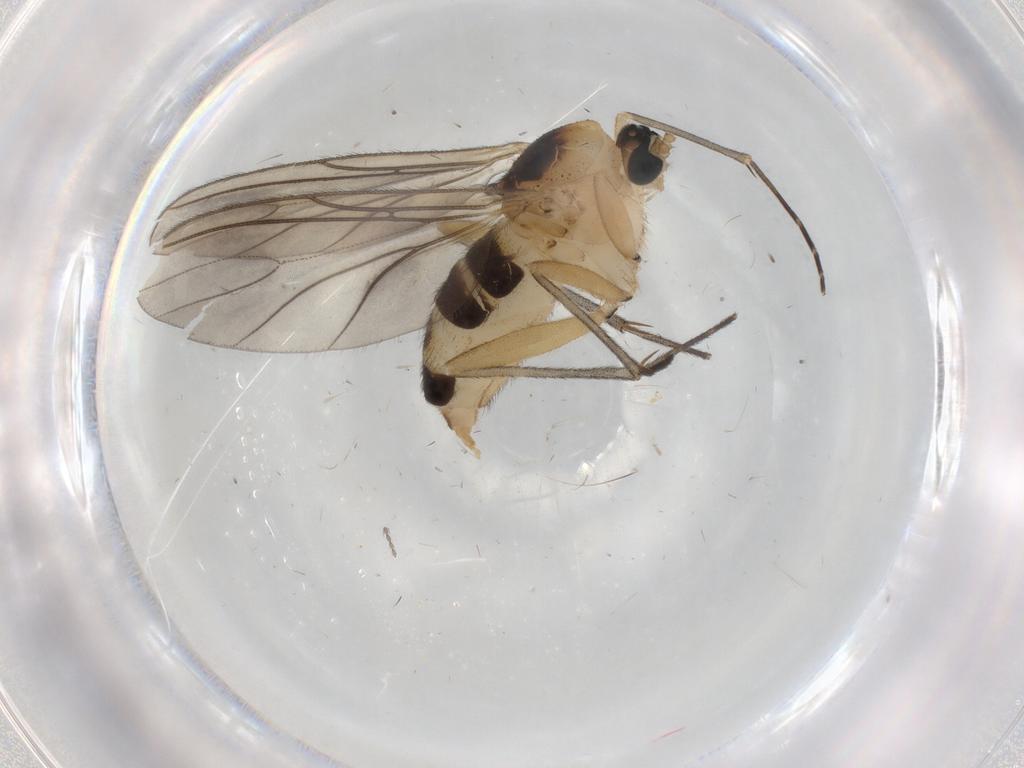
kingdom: Animalia
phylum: Arthropoda
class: Insecta
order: Diptera
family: Sciaridae
